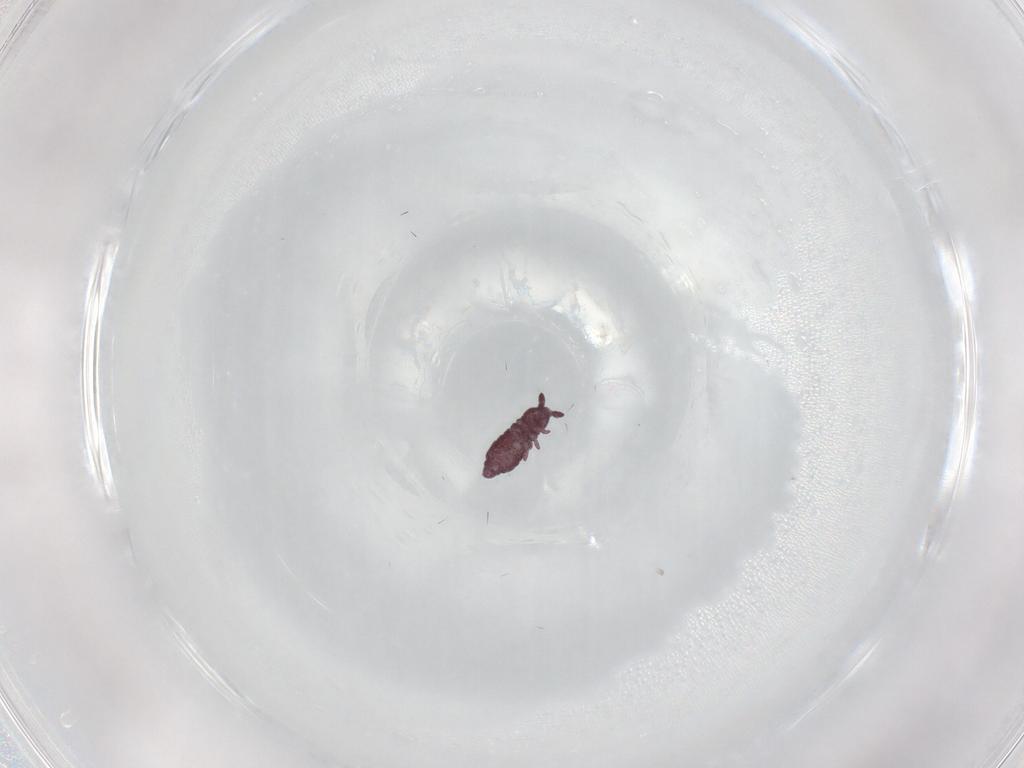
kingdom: Animalia
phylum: Arthropoda
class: Collembola
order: Poduromorpha
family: Hypogastruridae
